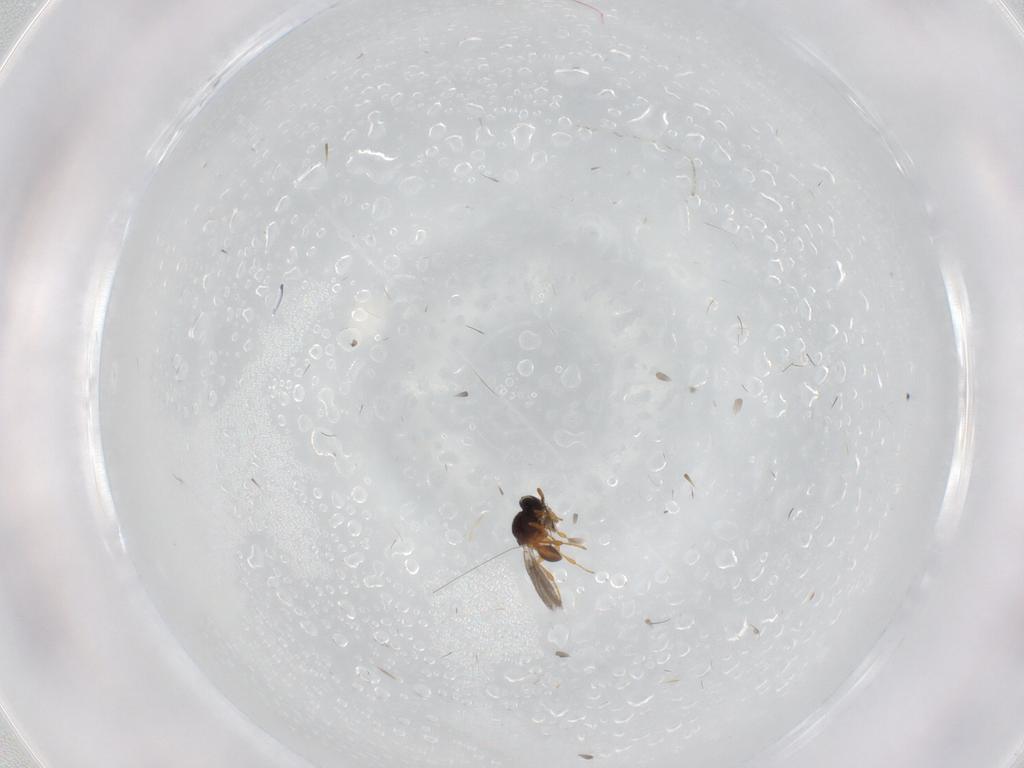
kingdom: Animalia
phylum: Arthropoda
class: Insecta
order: Diptera
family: Cecidomyiidae
